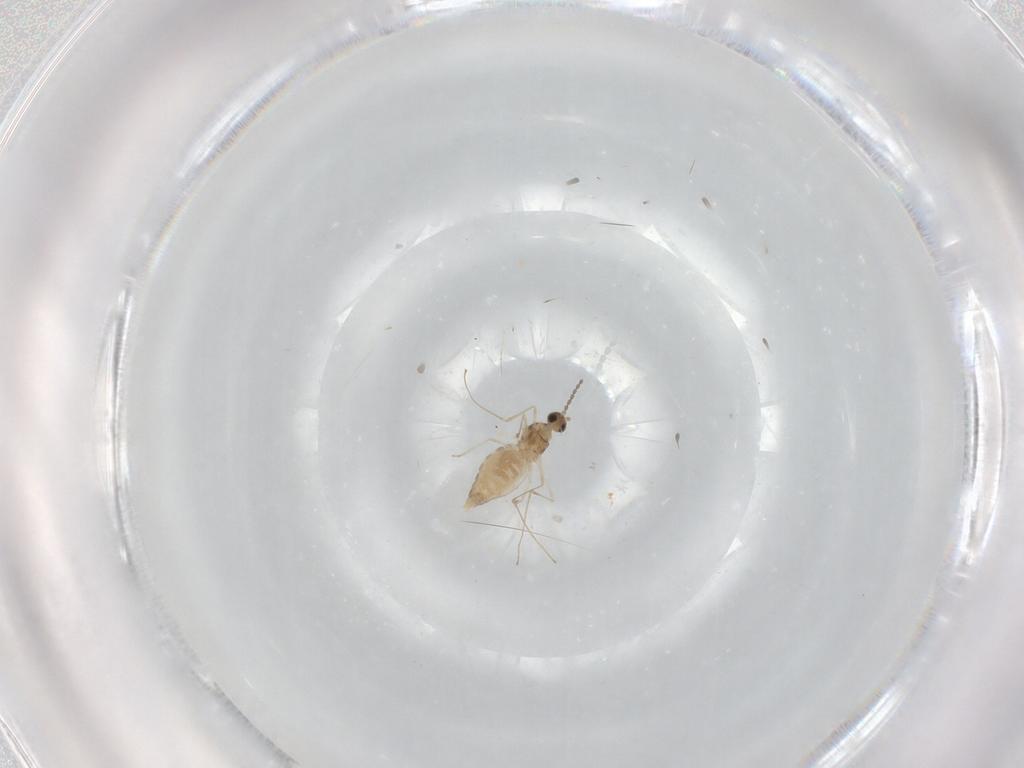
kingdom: Animalia
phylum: Arthropoda
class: Insecta
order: Diptera
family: Cecidomyiidae
